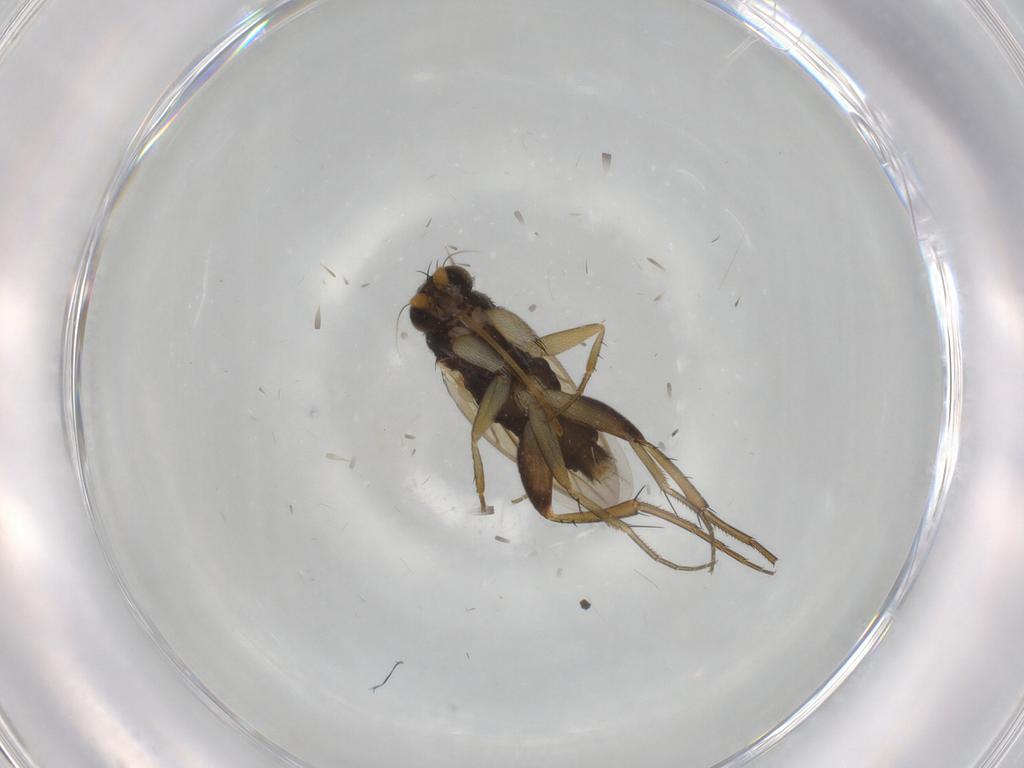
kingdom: Animalia
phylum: Arthropoda
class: Insecta
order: Diptera
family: Phoridae
